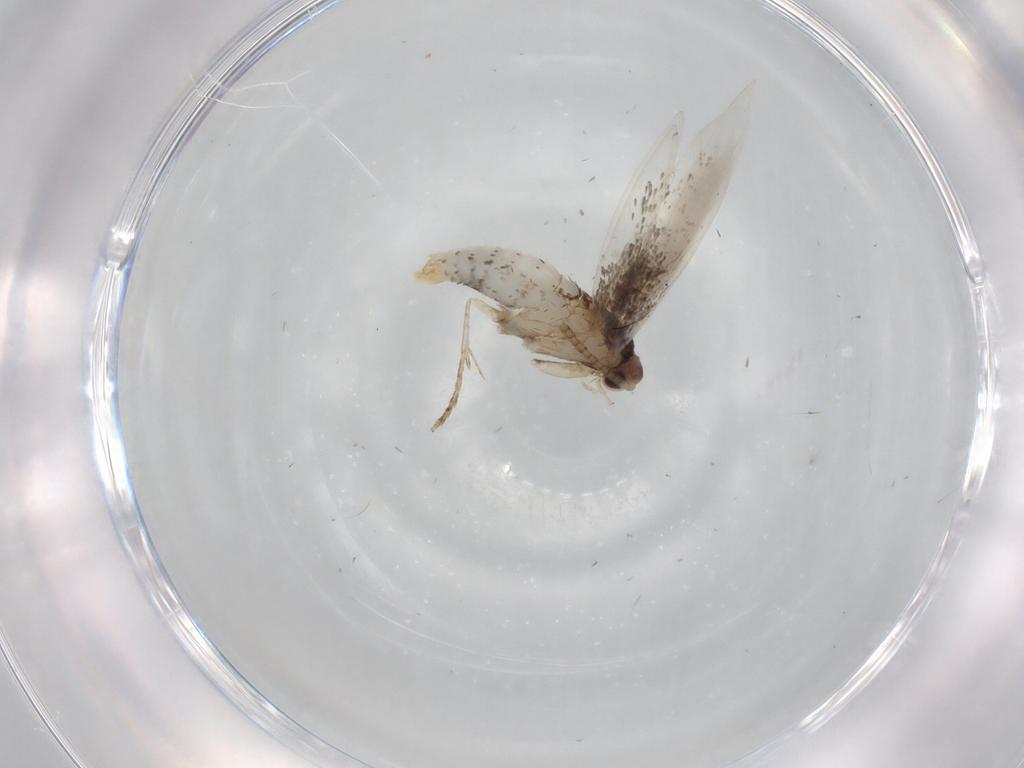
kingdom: Animalia
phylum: Arthropoda
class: Insecta
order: Lepidoptera
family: Tineidae
